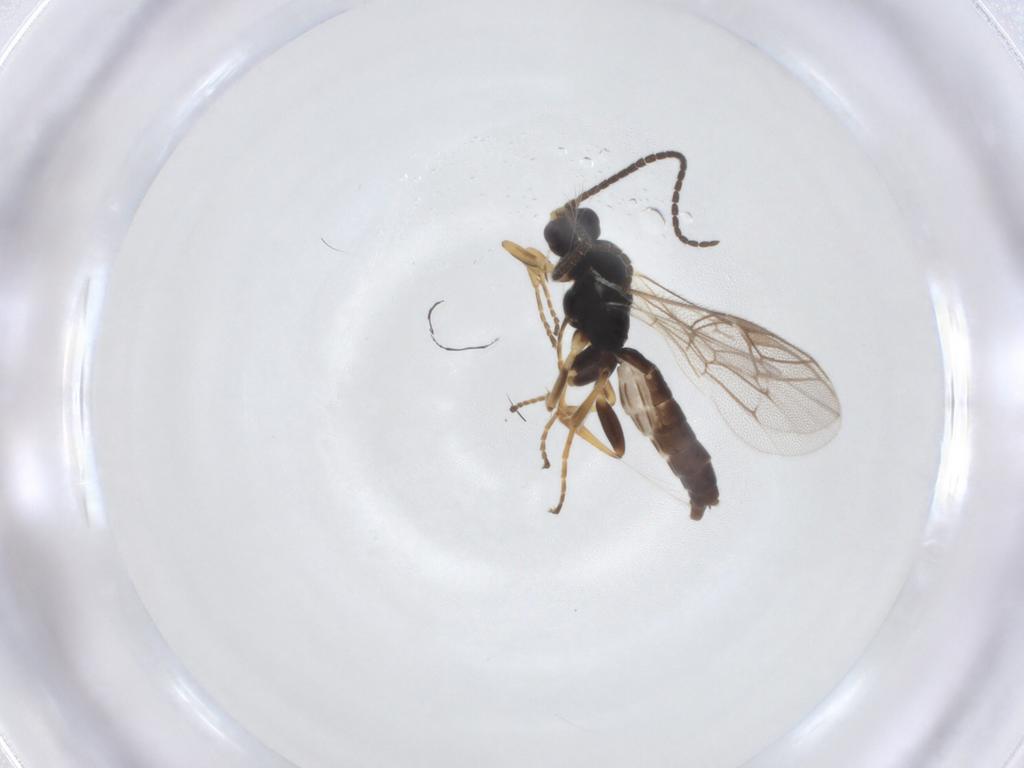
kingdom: Animalia
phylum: Arthropoda
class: Insecta
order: Hymenoptera
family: Ichneumonidae
